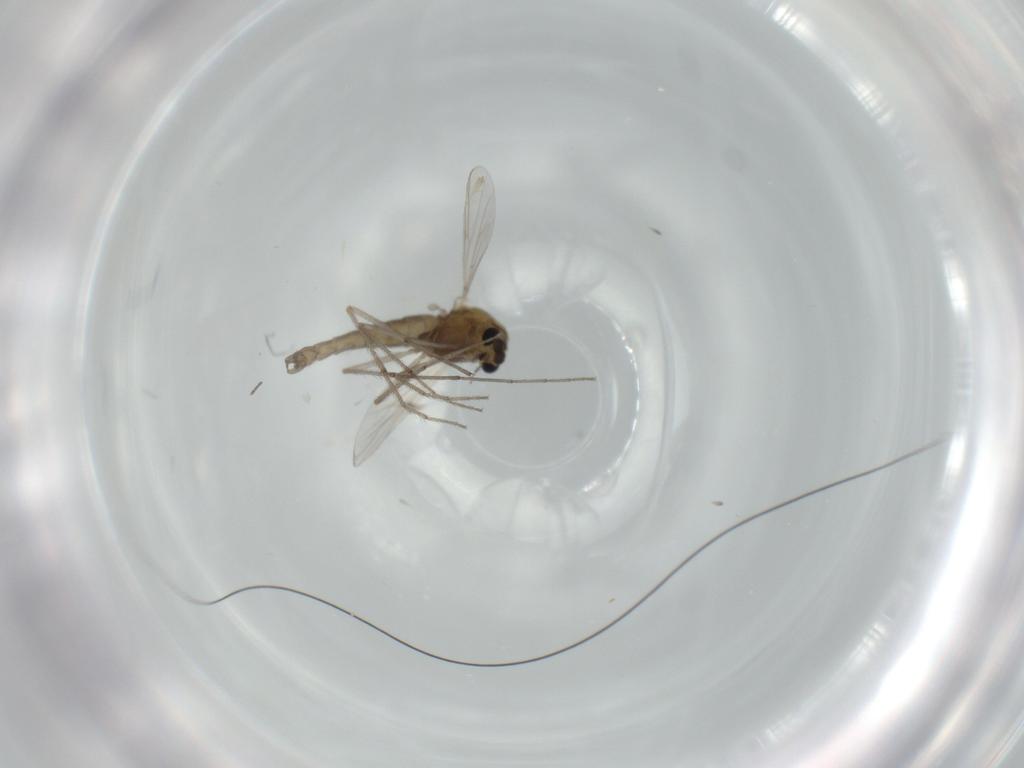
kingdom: Animalia
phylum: Arthropoda
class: Insecta
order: Diptera
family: Chironomidae
